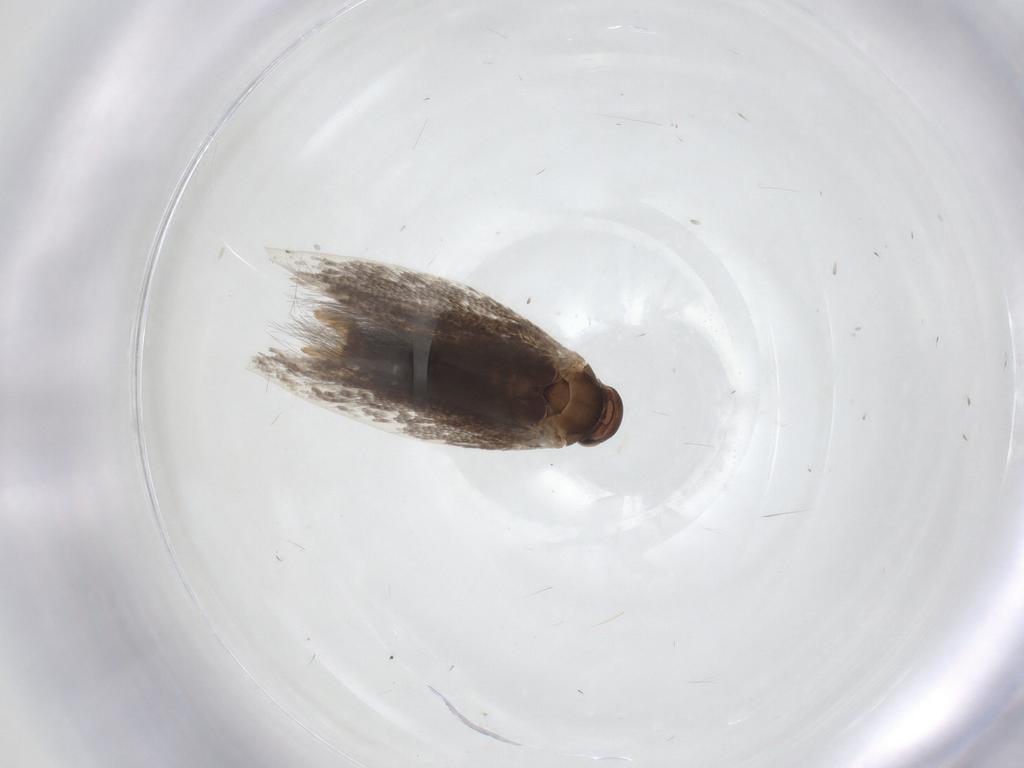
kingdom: Animalia
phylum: Arthropoda
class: Insecta
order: Lepidoptera
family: Elachistidae
